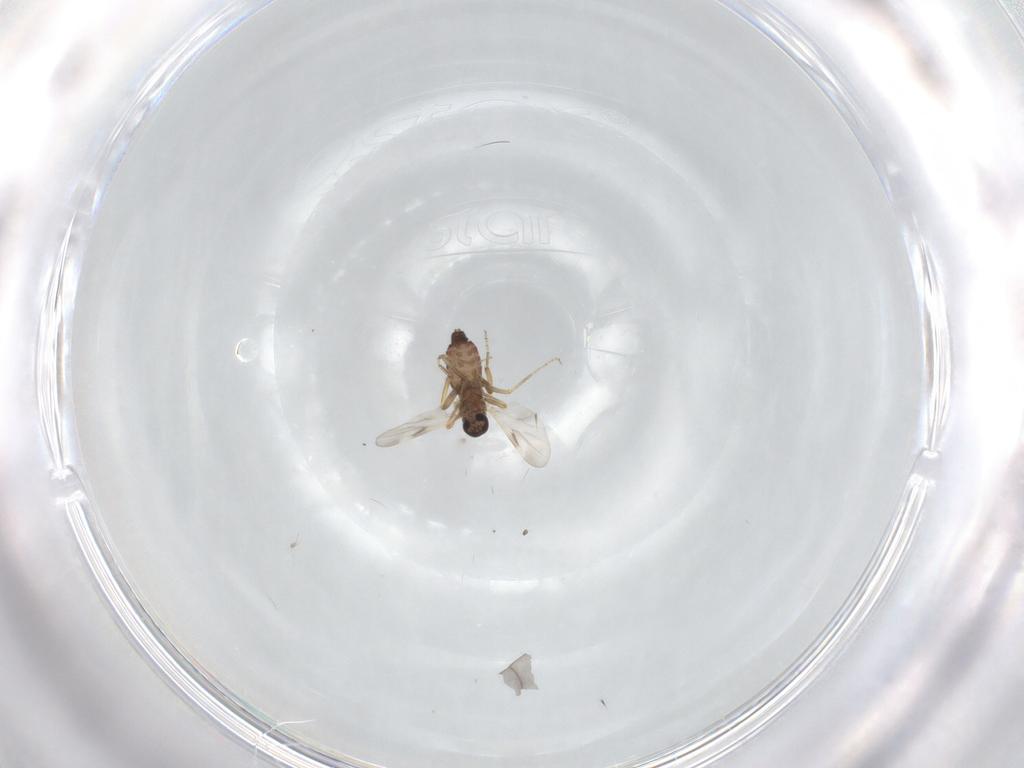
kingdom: Animalia
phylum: Arthropoda
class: Insecta
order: Diptera
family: Ceratopogonidae
